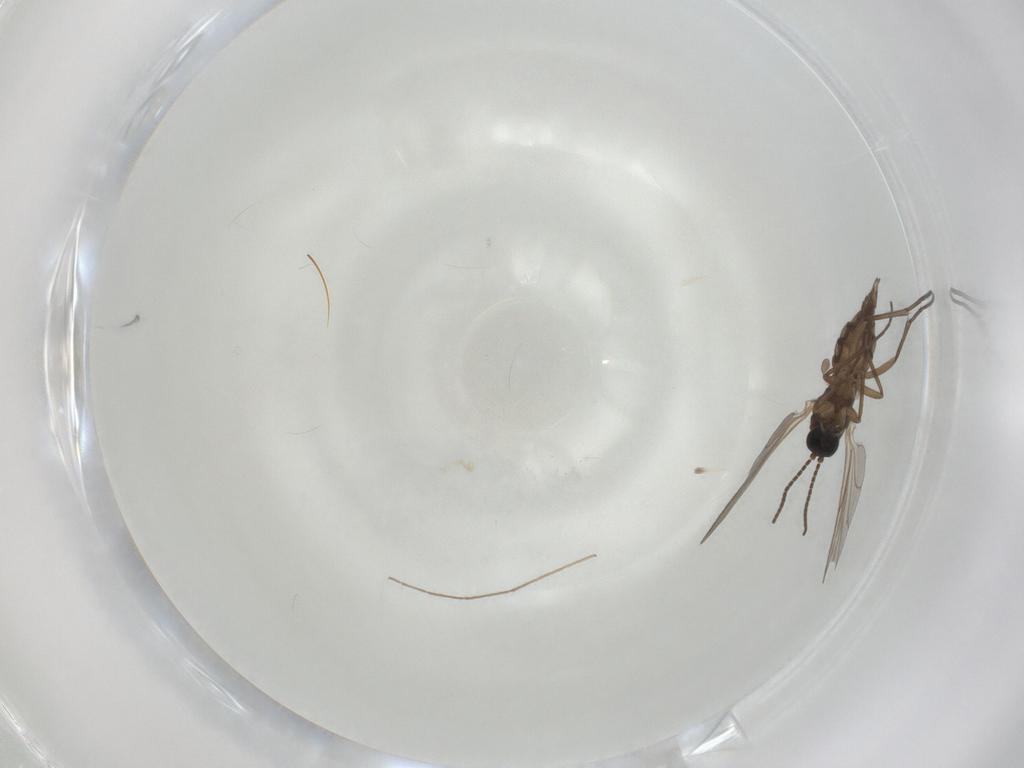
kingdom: Animalia
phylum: Arthropoda
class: Insecta
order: Diptera
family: Sciaridae
